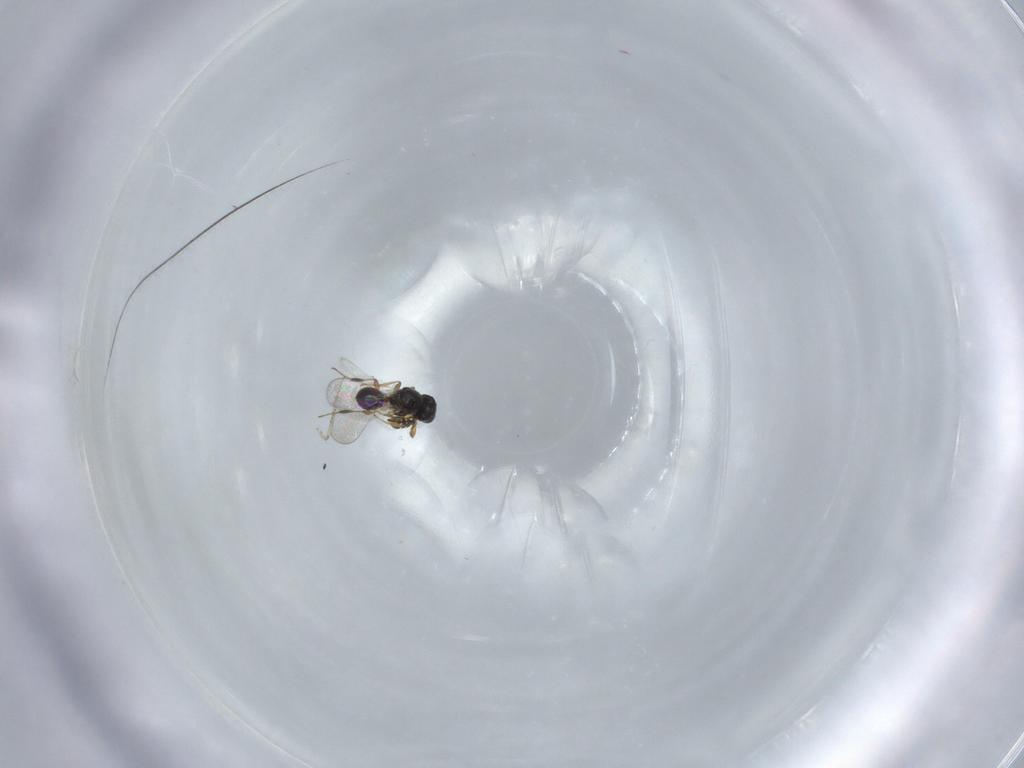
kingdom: Animalia
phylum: Arthropoda
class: Insecta
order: Hymenoptera
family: Platygastridae
